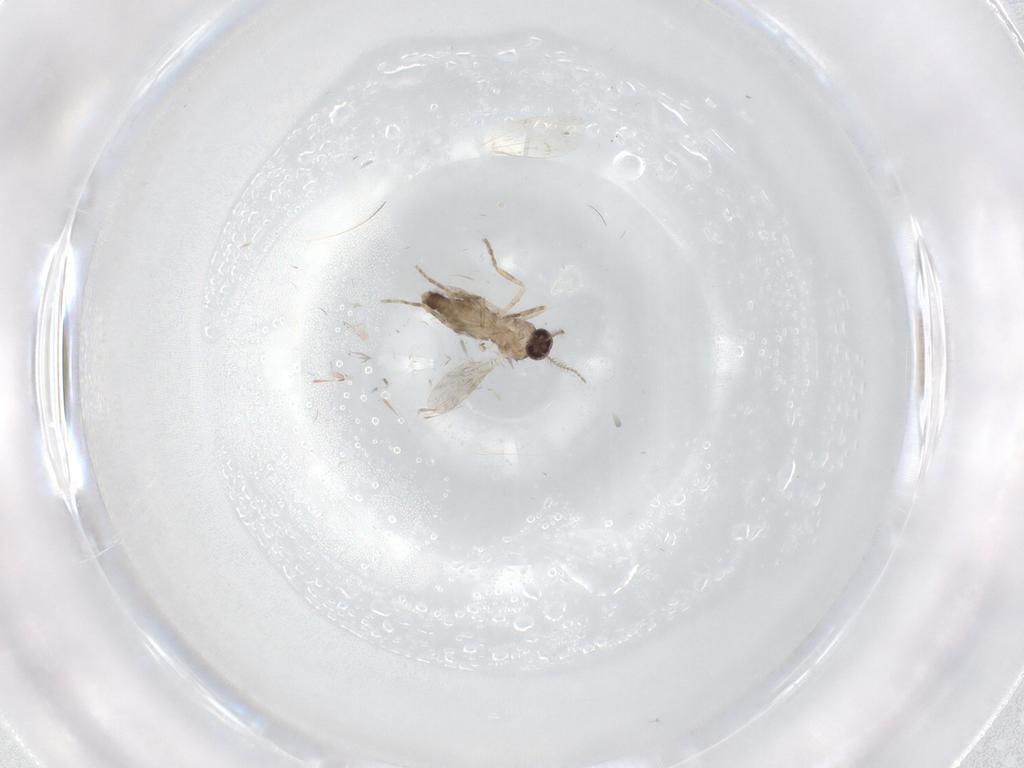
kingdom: Animalia
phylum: Arthropoda
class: Insecta
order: Diptera
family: Ceratopogonidae
